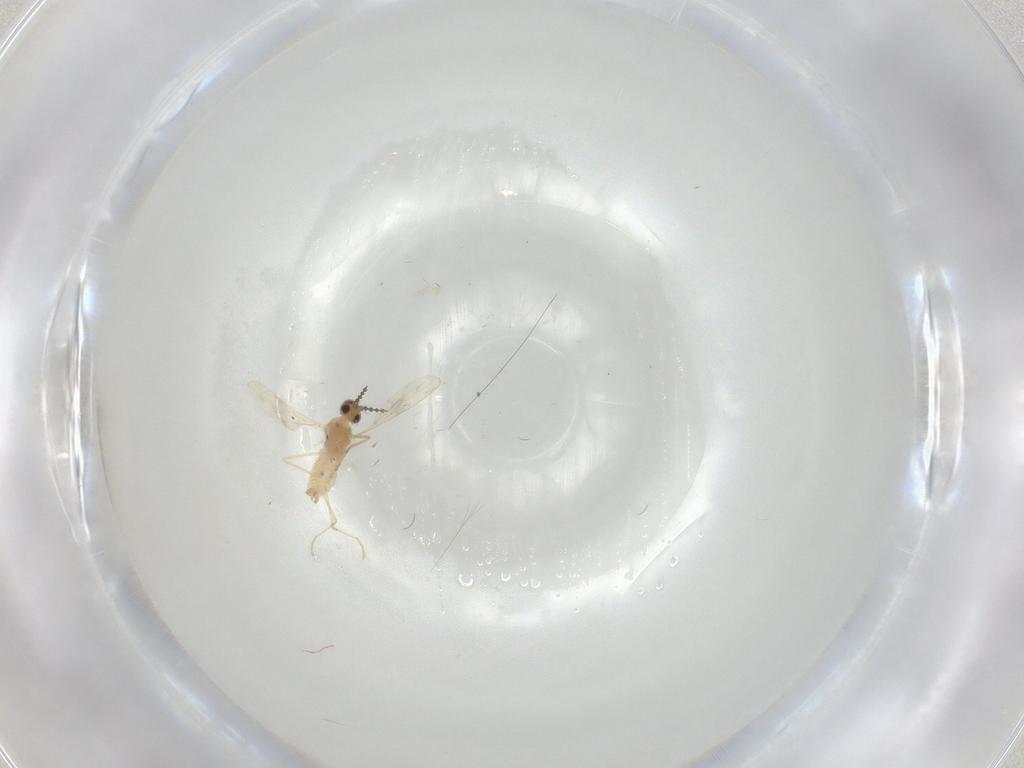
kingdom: Animalia
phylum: Arthropoda
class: Insecta
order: Diptera
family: Cecidomyiidae
